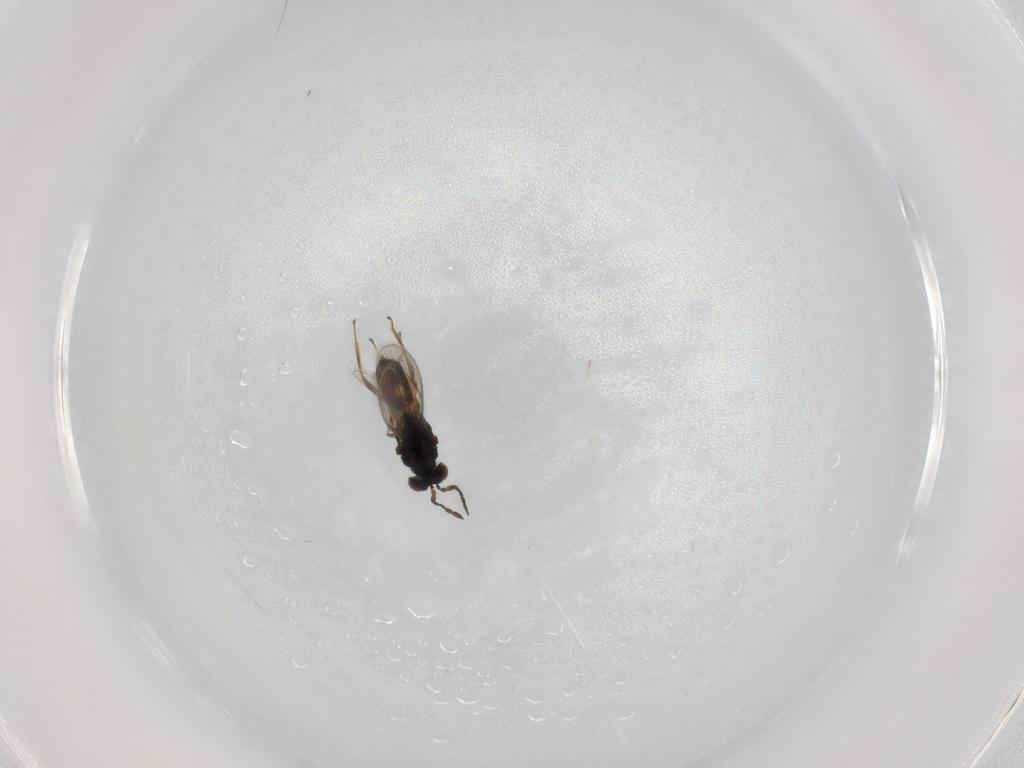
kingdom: Animalia
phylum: Arthropoda
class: Insecta
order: Hymenoptera
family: Eulophidae
